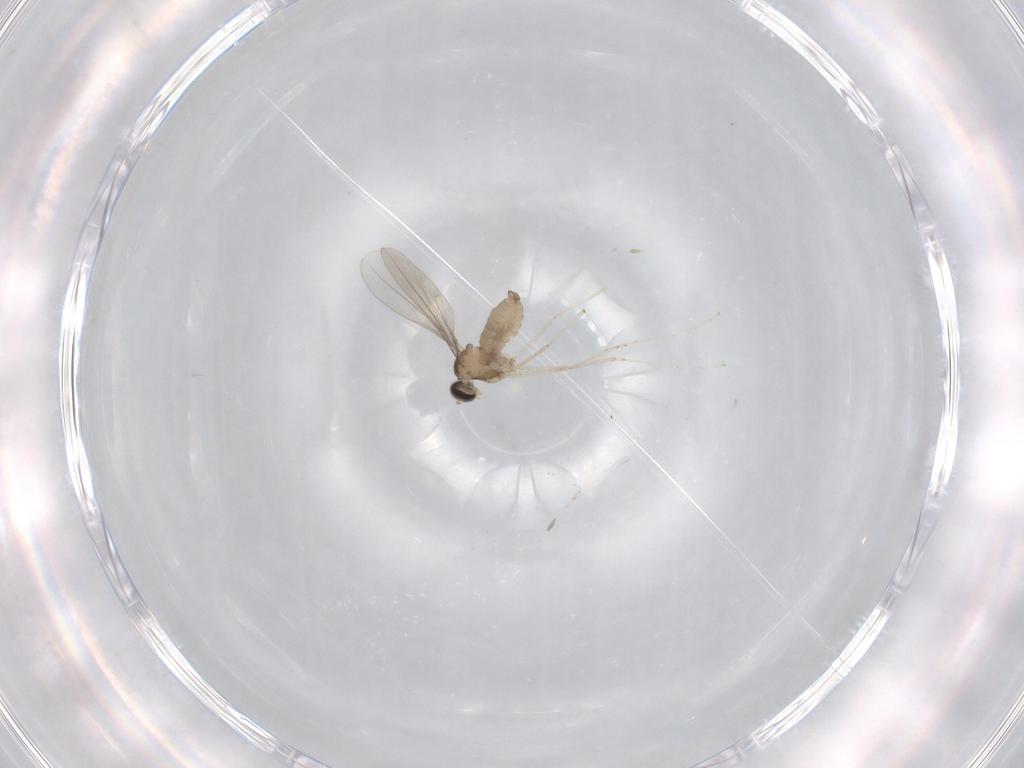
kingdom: Animalia
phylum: Arthropoda
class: Insecta
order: Diptera
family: Cecidomyiidae
